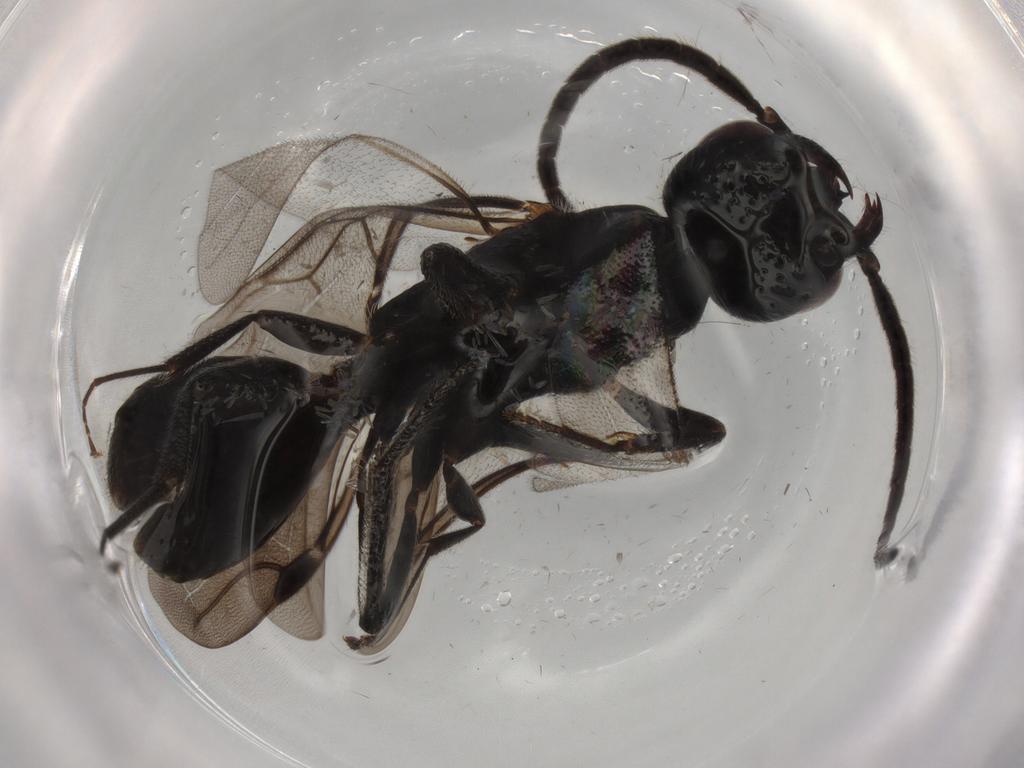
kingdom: Animalia
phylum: Arthropoda
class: Insecta
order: Hymenoptera
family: Bethylidae
